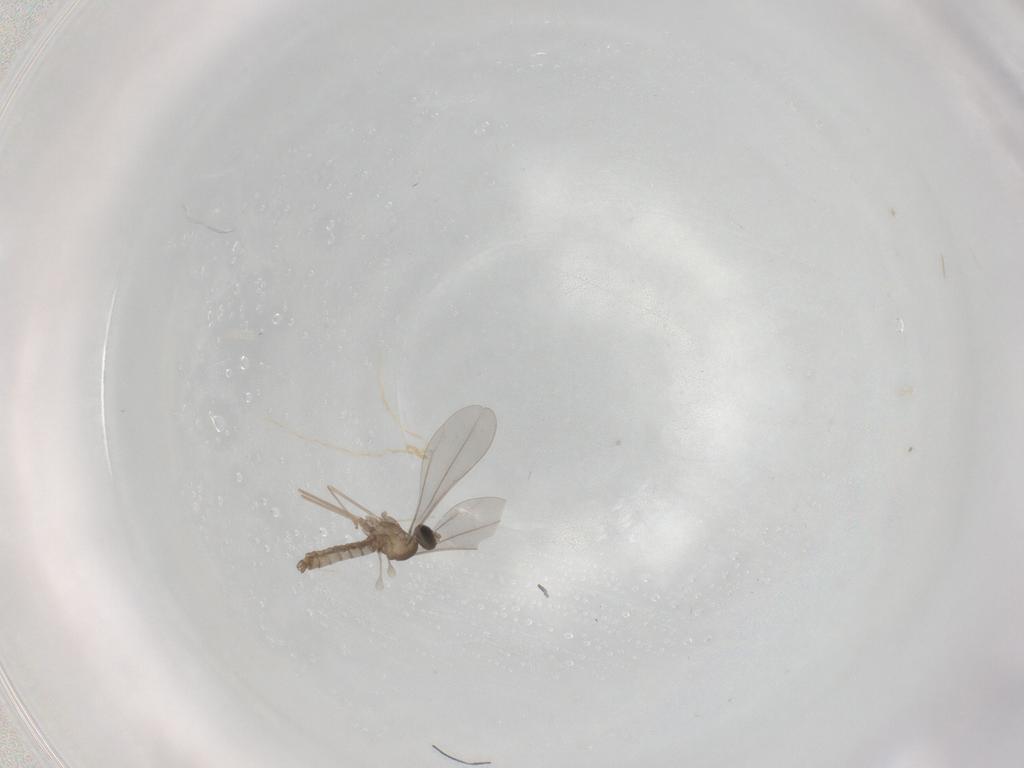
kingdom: Animalia
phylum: Arthropoda
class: Insecta
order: Diptera
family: Cecidomyiidae
